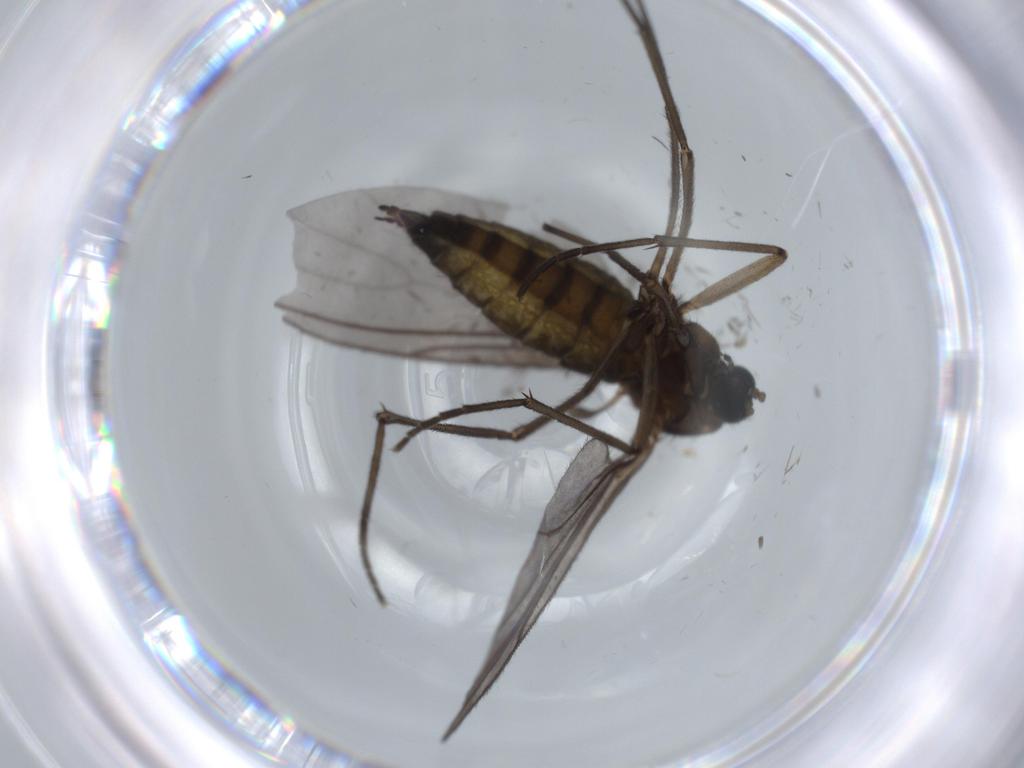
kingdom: Animalia
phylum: Arthropoda
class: Insecta
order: Diptera
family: Sciaridae
